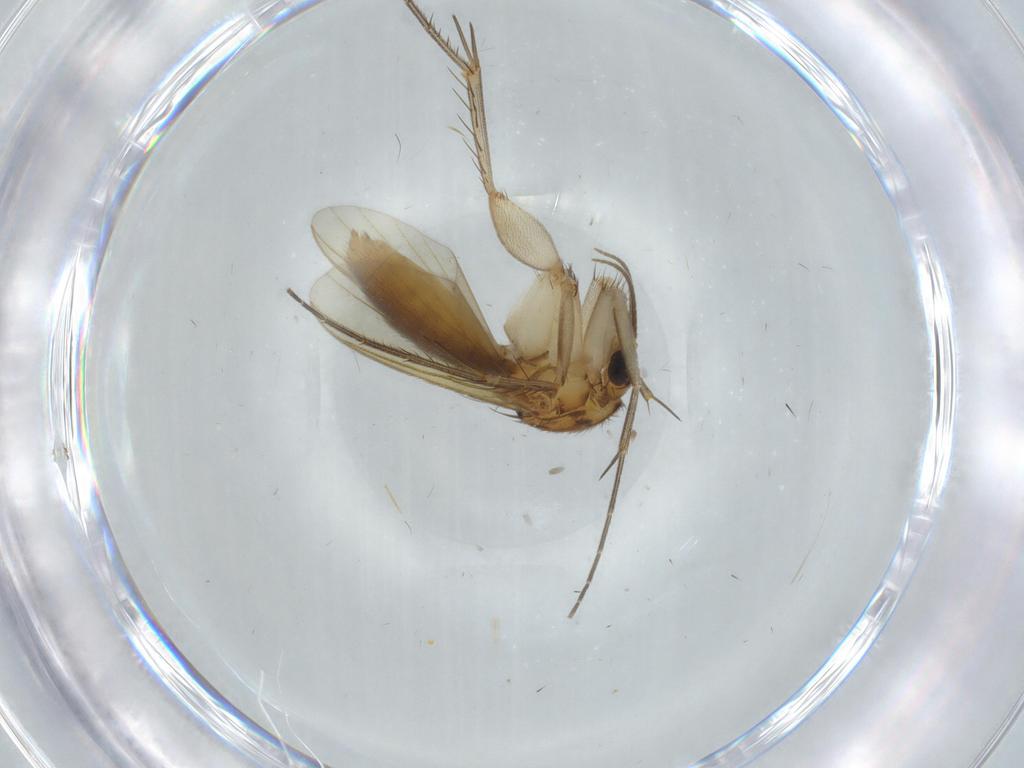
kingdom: Animalia
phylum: Arthropoda
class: Insecta
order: Diptera
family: Mycetophilidae
